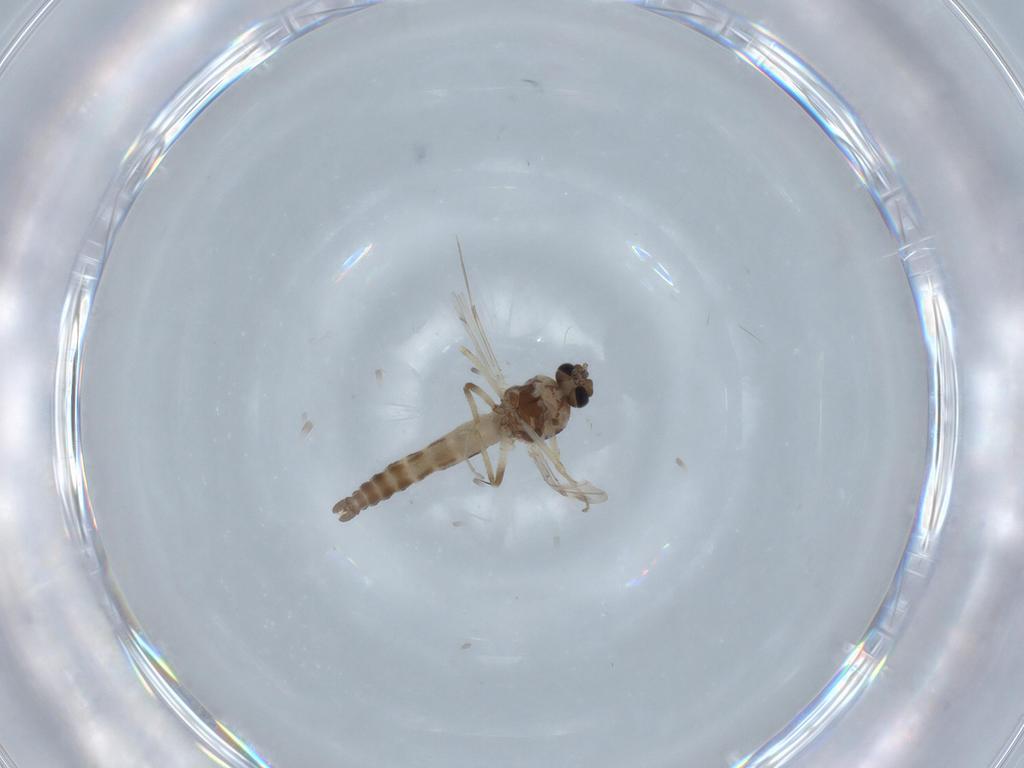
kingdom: Animalia
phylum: Arthropoda
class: Insecta
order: Diptera
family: Ceratopogonidae
